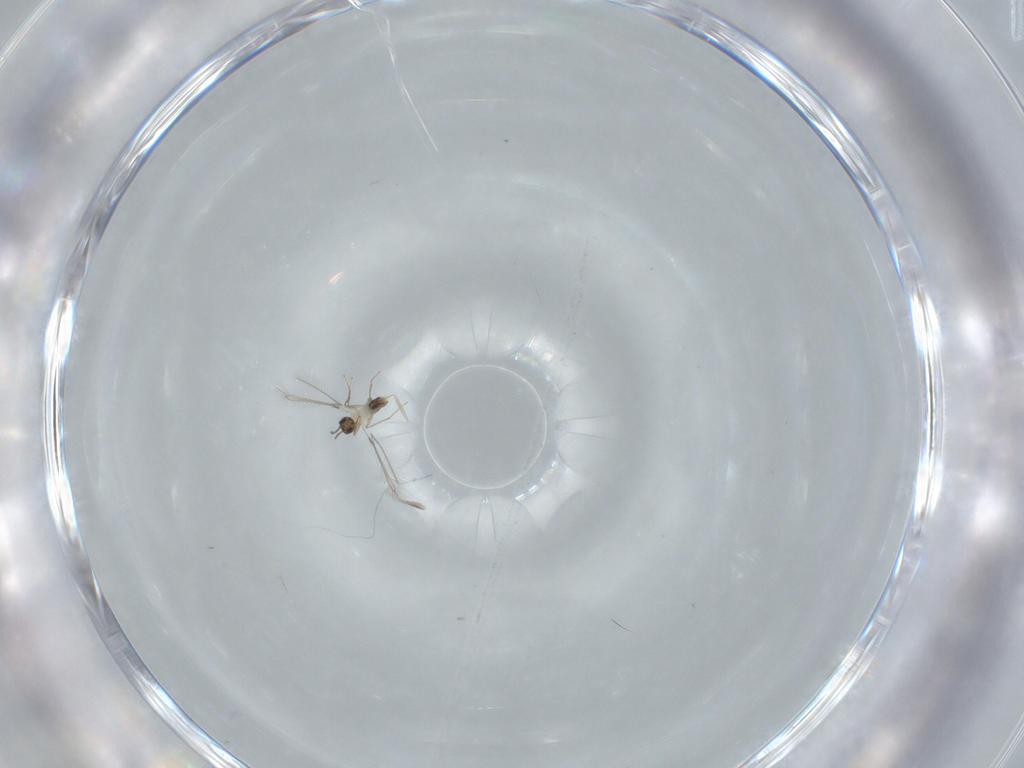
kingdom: Animalia
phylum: Arthropoda
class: Insecta
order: Hymenoptera
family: Mymaridae
